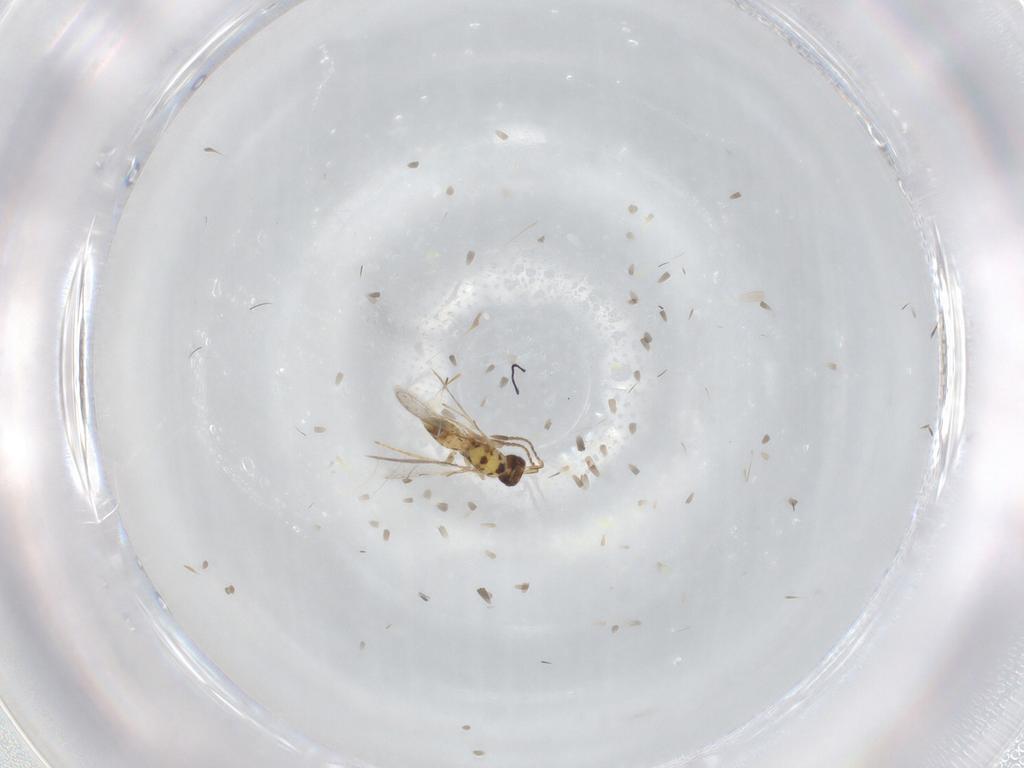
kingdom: Animalia
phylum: Arthropoda
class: Insecta
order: Hymenoptera
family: Mymaridae
